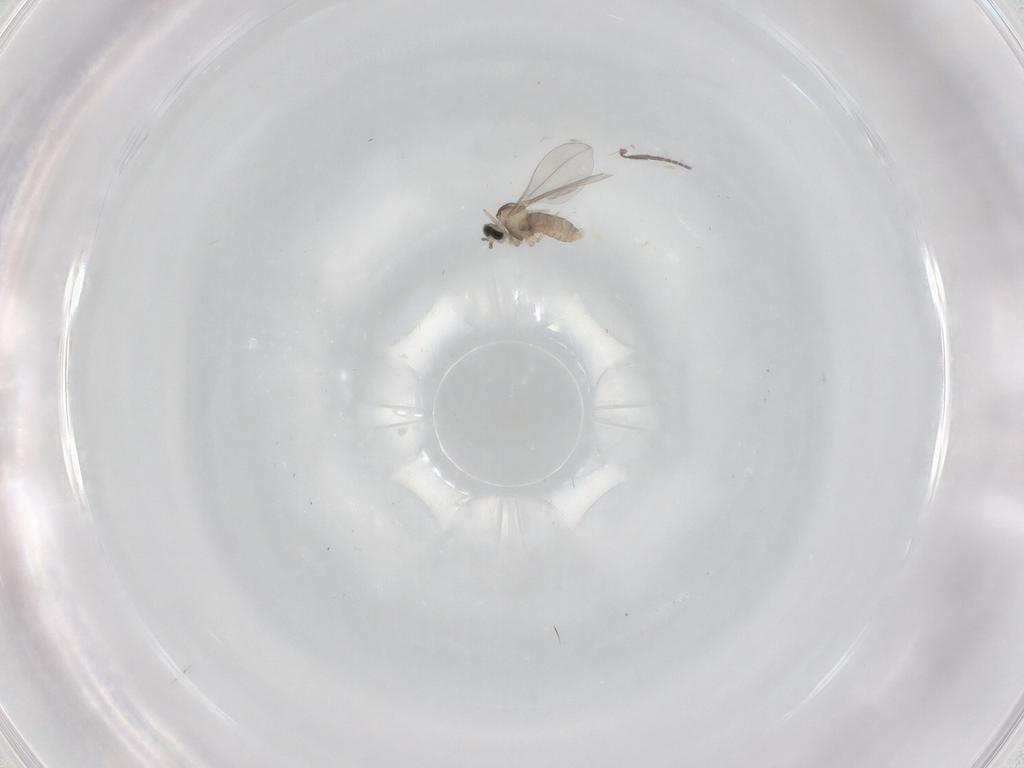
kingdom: Animalia
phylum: Arthropoda
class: Insecta
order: Diptera
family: Cecidomyiidae
